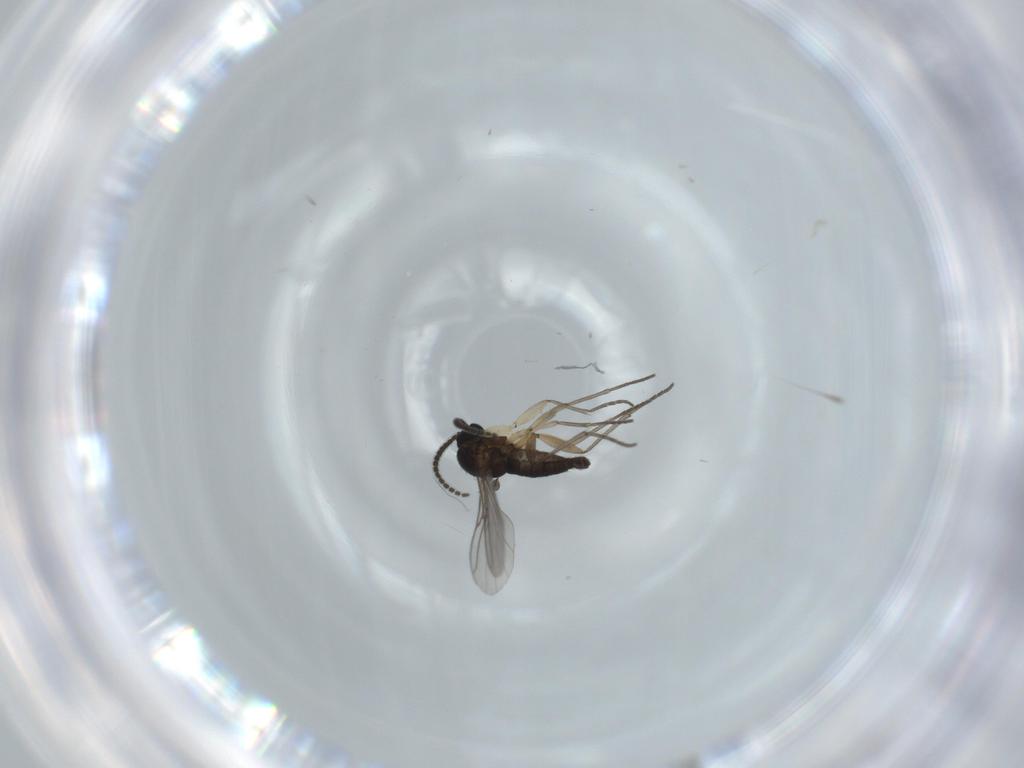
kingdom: Animalia
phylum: Arthropoda
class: Insecta
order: Diptera
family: Sciaridae
